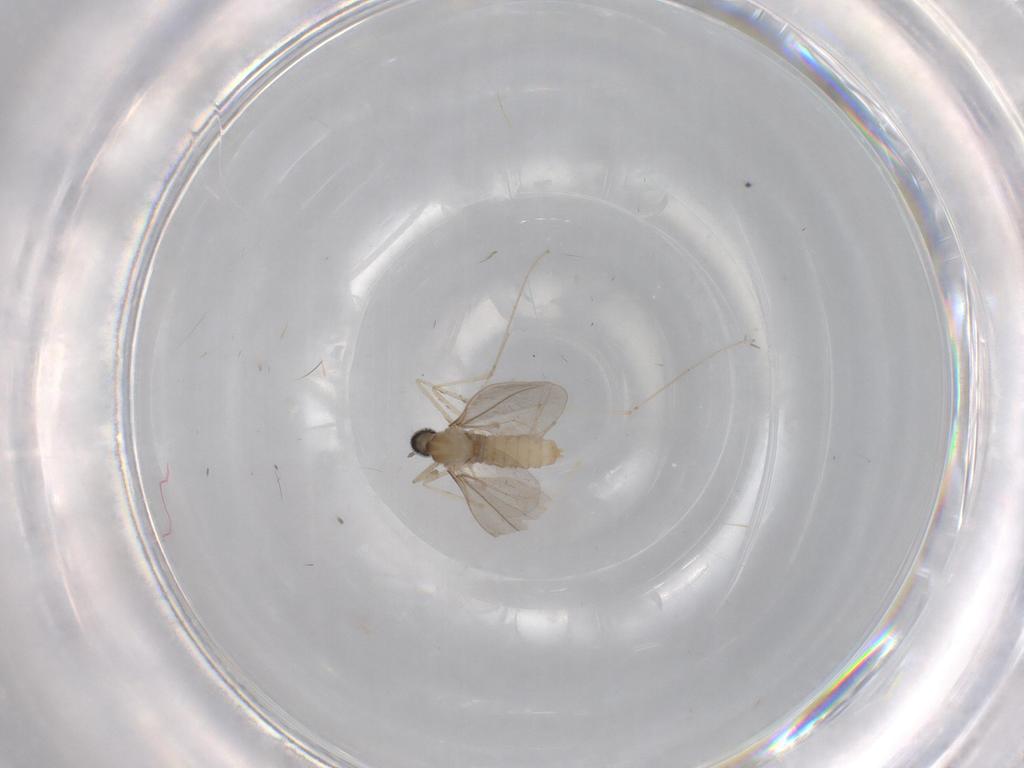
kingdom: Animalia
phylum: Arthropoda
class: Insecta
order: Diptera
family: Cecidomyiidae
